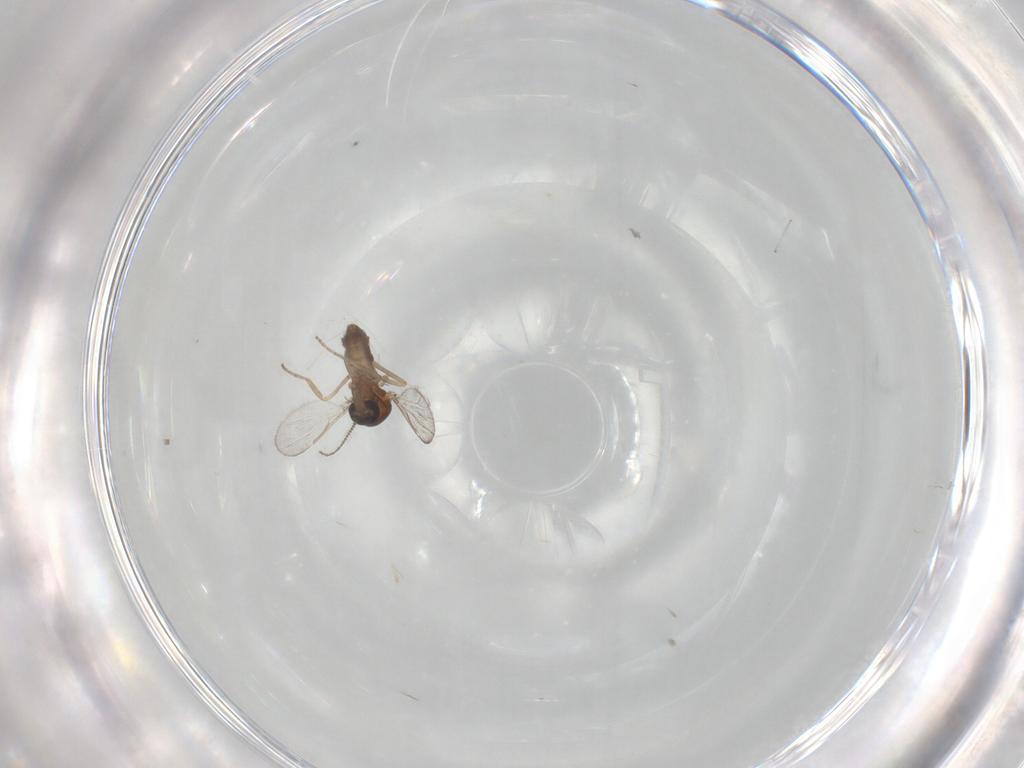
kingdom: Animalia
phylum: Arthropoda
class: Insecta
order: Diptera
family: Ceratopogonidae
